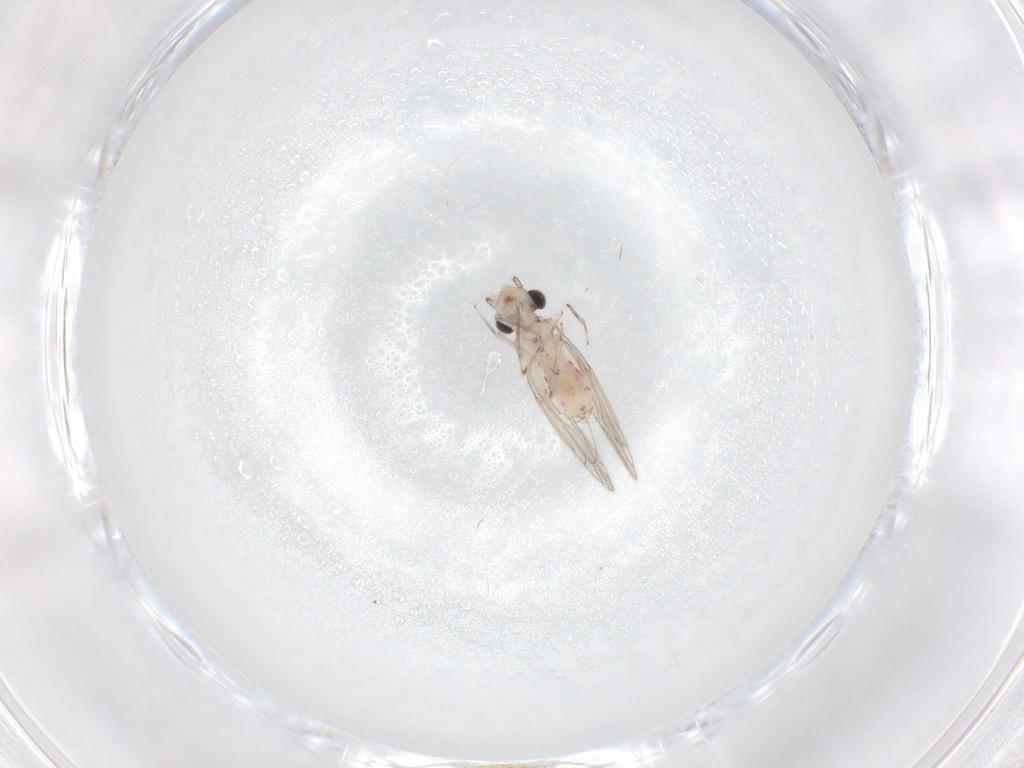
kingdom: Animalia
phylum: Arthropoda
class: Insecta
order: Psocodea
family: Caeciliusidae
